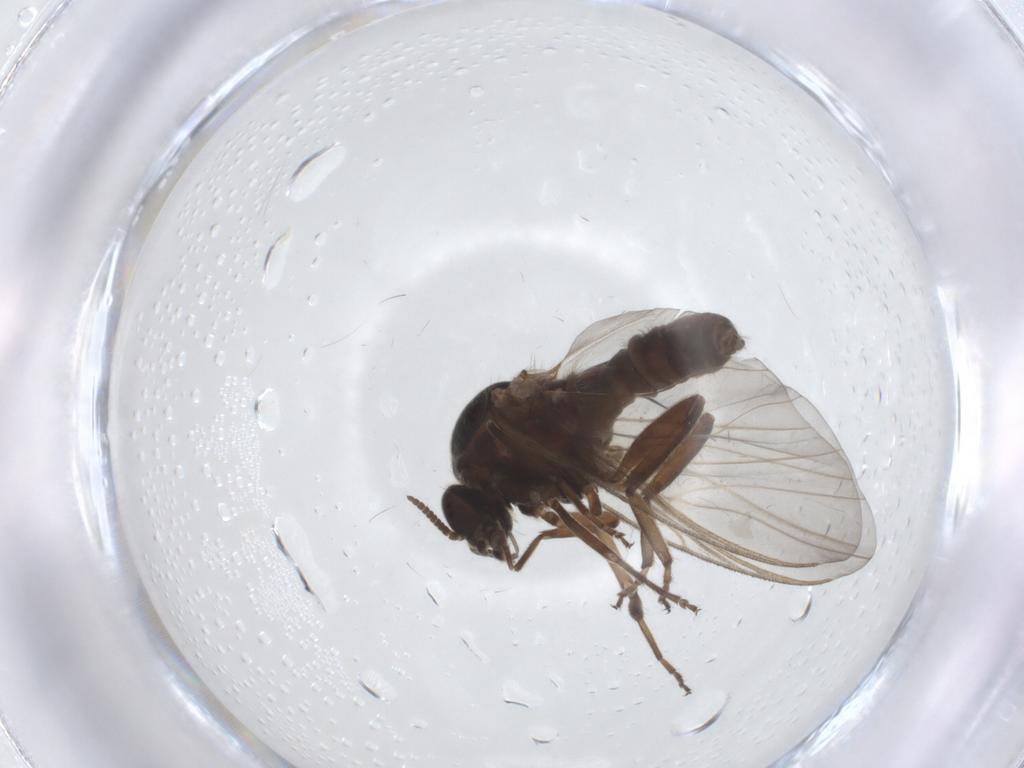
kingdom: Animalia
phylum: Arthropoda
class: Insecta
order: Diptera
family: Simuliidae
